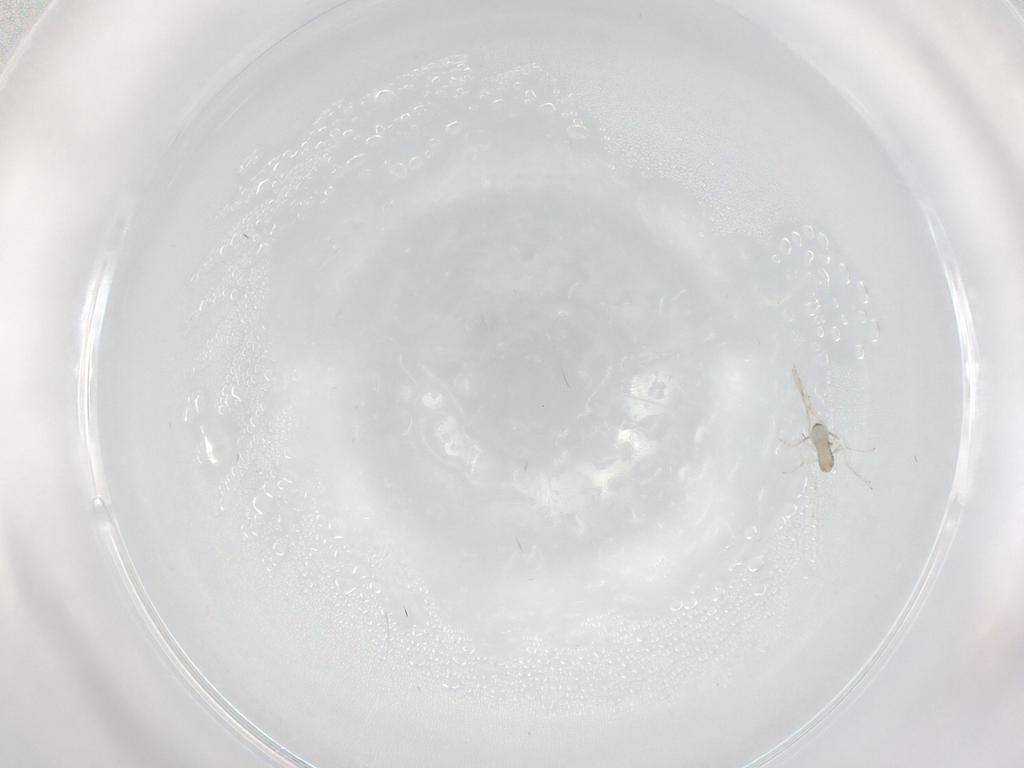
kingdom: Animalia
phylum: Arthropoda
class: Insecta
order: Diptera
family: Cecidomyiidae
